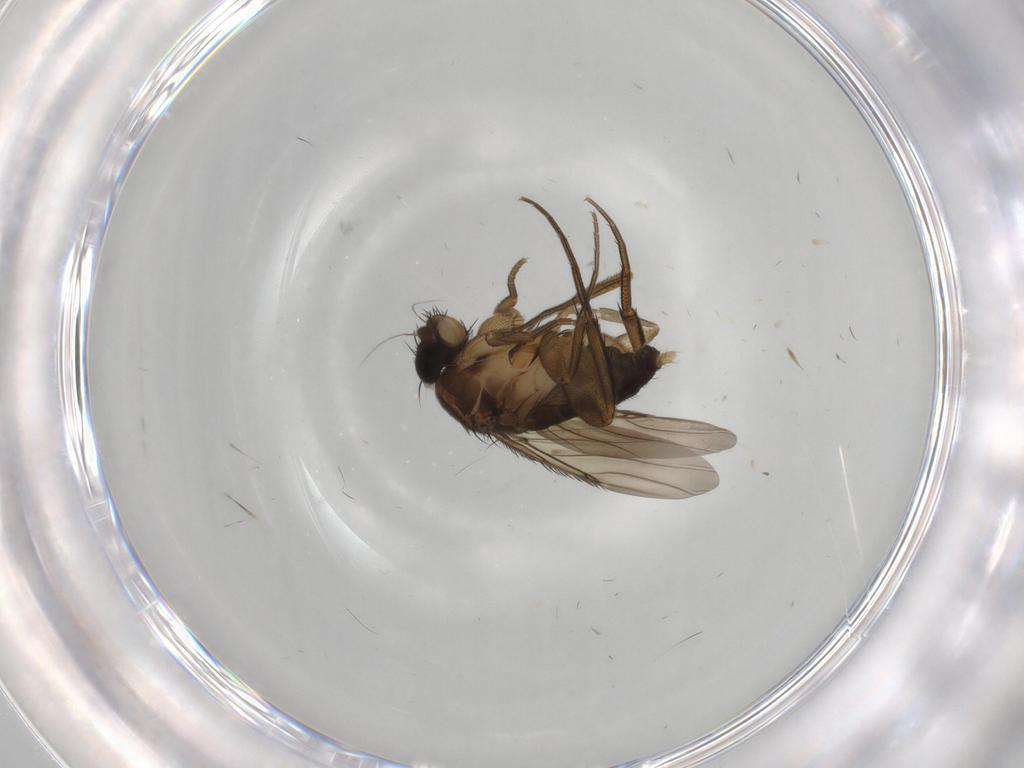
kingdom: Animalia
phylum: Arthropoda
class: Insecta
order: Diptera
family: Phoridae
